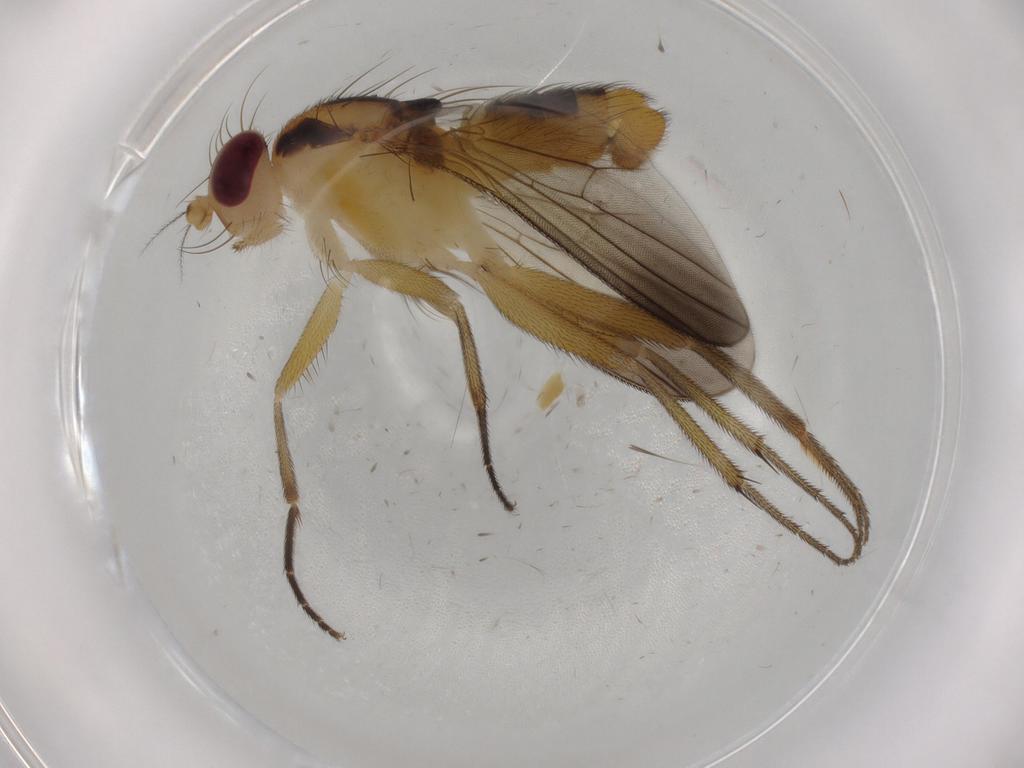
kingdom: Animalia
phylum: Arthropoda
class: Insecta
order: Diptera
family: Clusiidae
